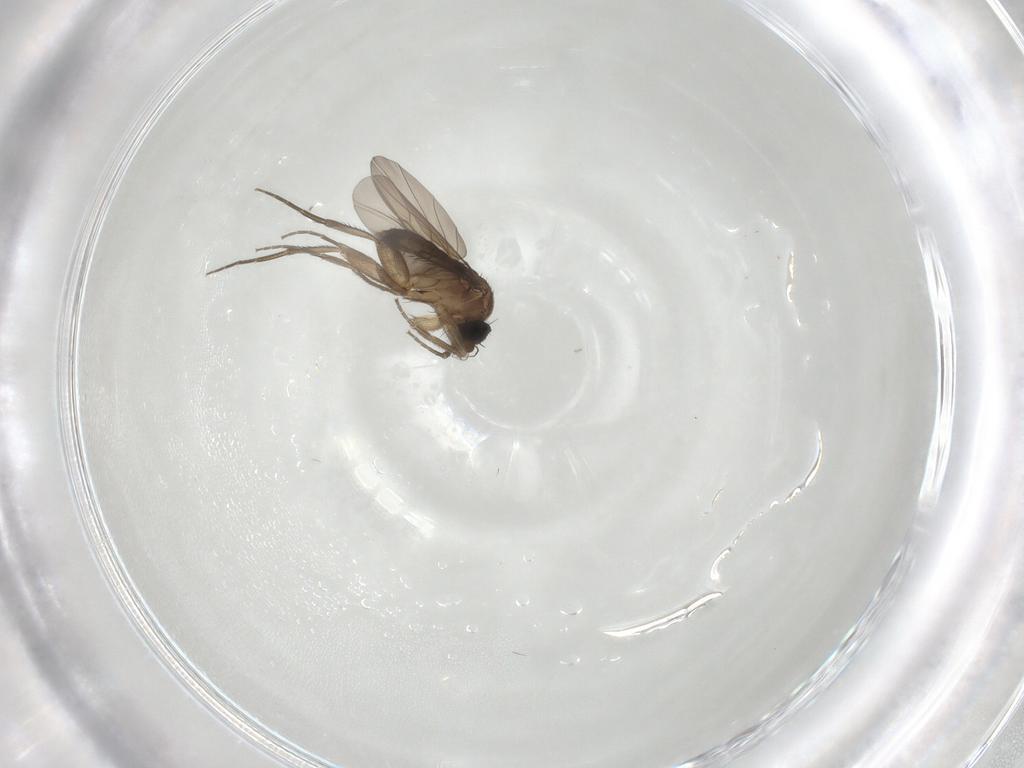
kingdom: Animalia
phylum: Arthropoda
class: Insecta
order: Diptera
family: Phoridae
